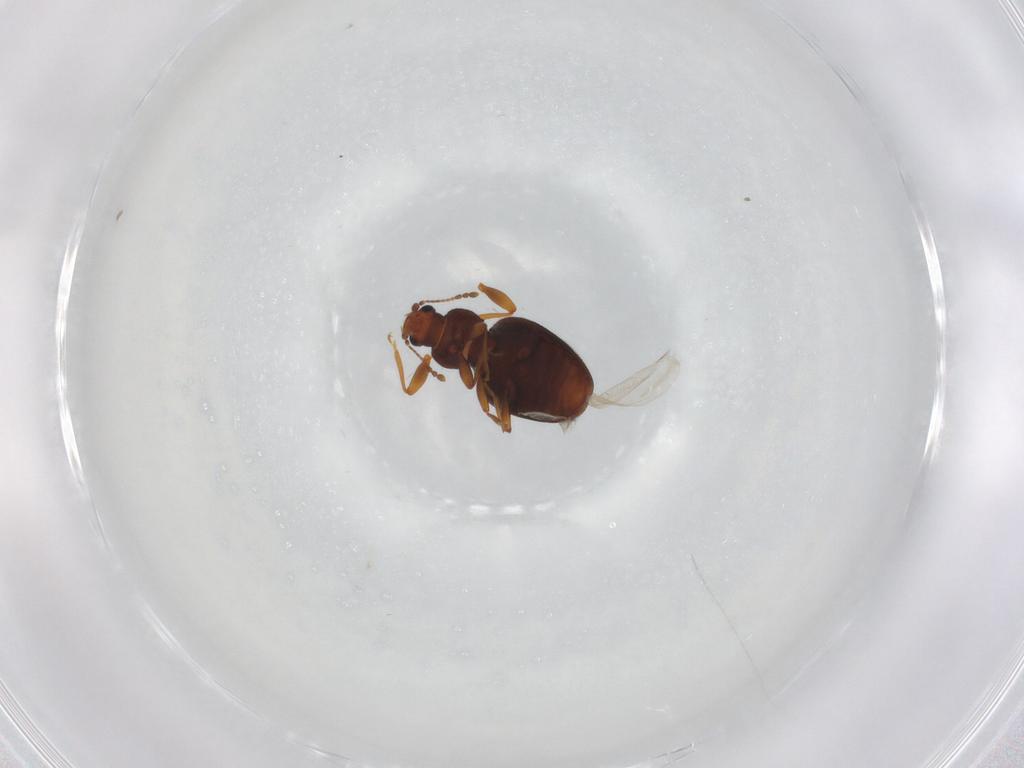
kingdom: Animalia
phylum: Arthropoda
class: Insecta
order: Coleoptera
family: Latridiidae
